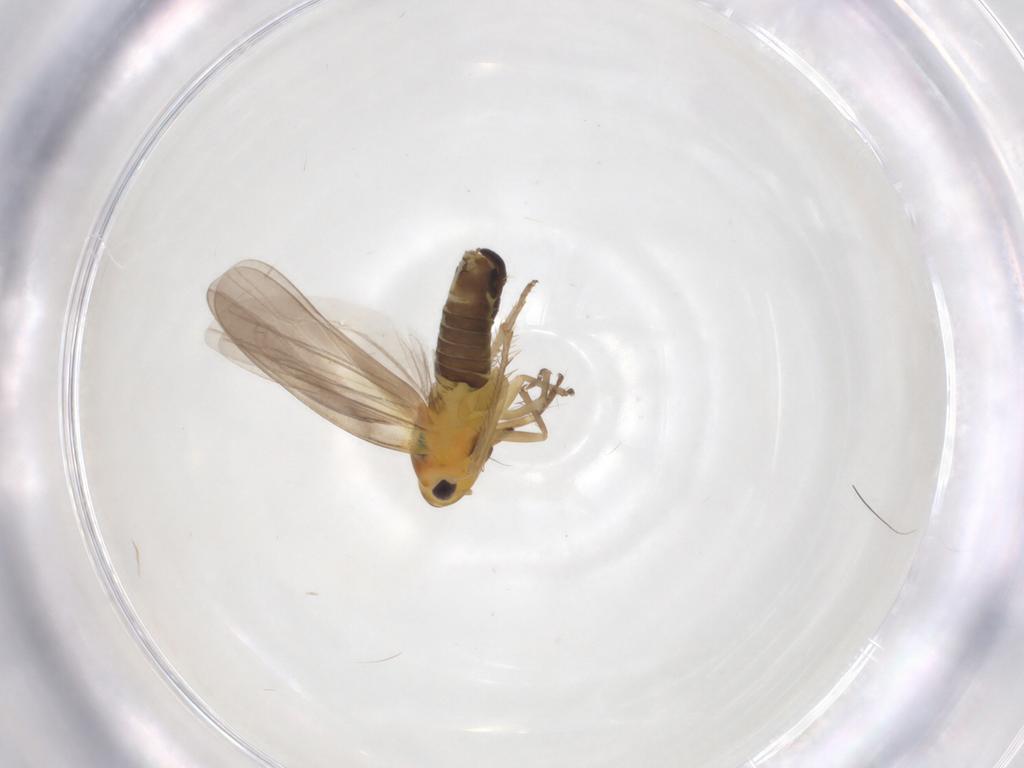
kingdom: Animalia
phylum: Arthropoda
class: Insecta
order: Hemiptera
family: Cicadellidae
